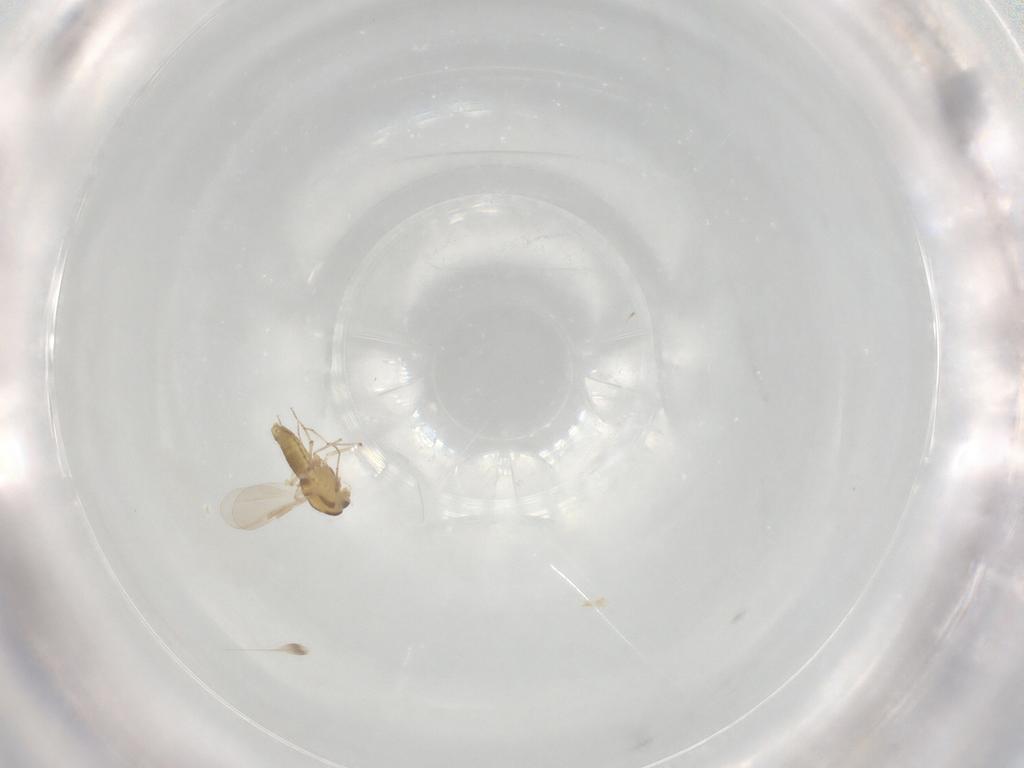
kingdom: Animalia
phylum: Arthropoda
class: Insecta
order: Diptera
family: Chironomidae
